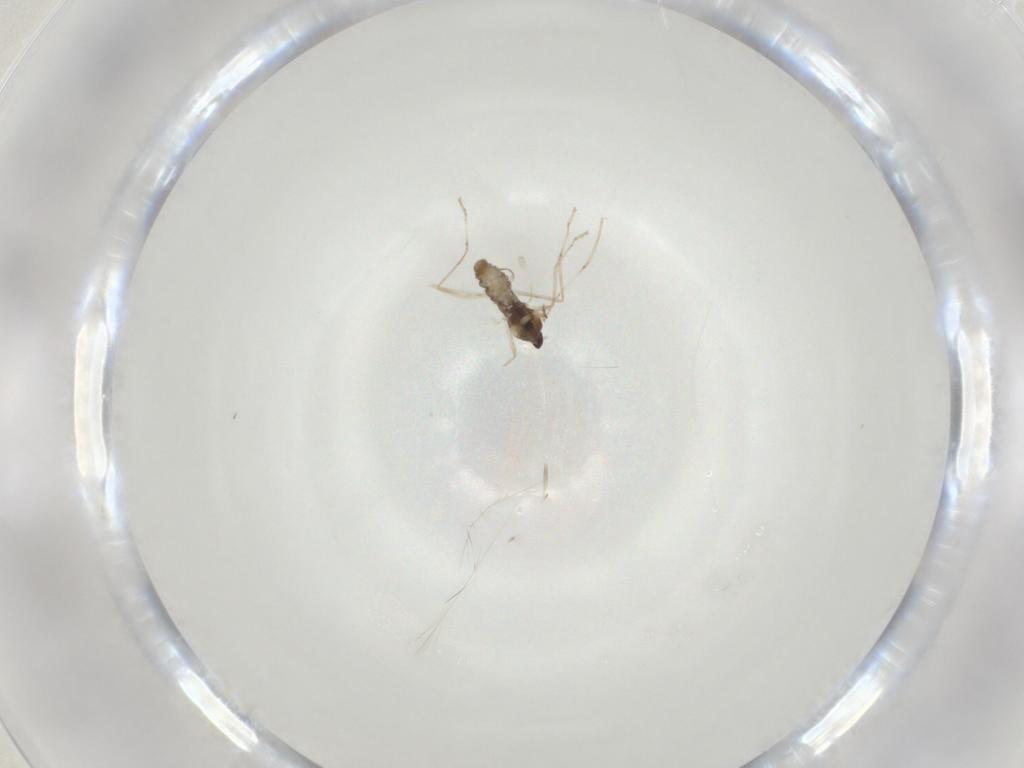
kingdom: Animalia
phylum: Arthropoda
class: Insecta
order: Diptera
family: Cecidomyiidae
